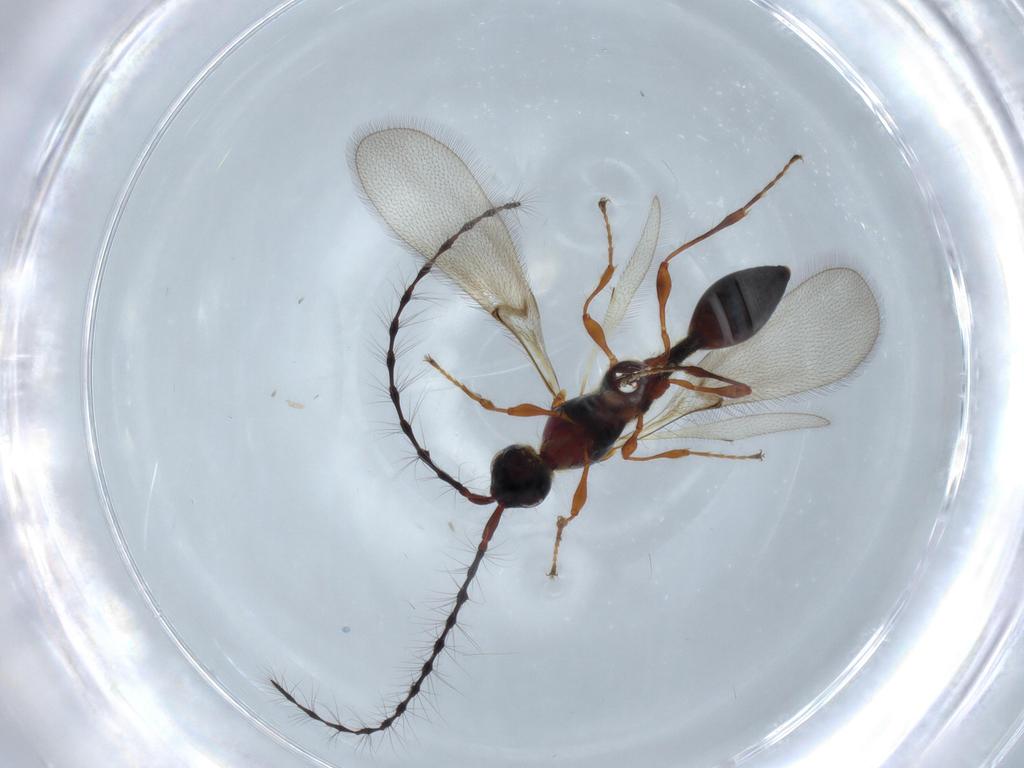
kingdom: Animalia
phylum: Arthropoda
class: Insecta
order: Hymenoptera
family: Diapriidae
